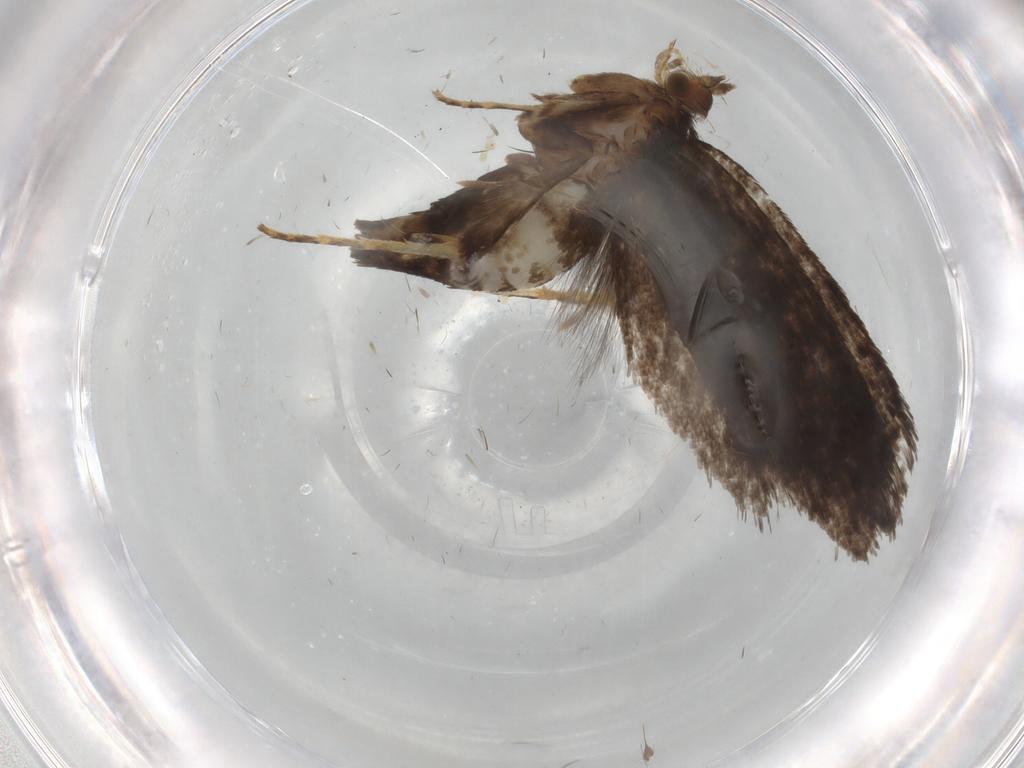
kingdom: Animalia
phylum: Arthropoda
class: Insecta
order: Lepidoptera
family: Tineidae
